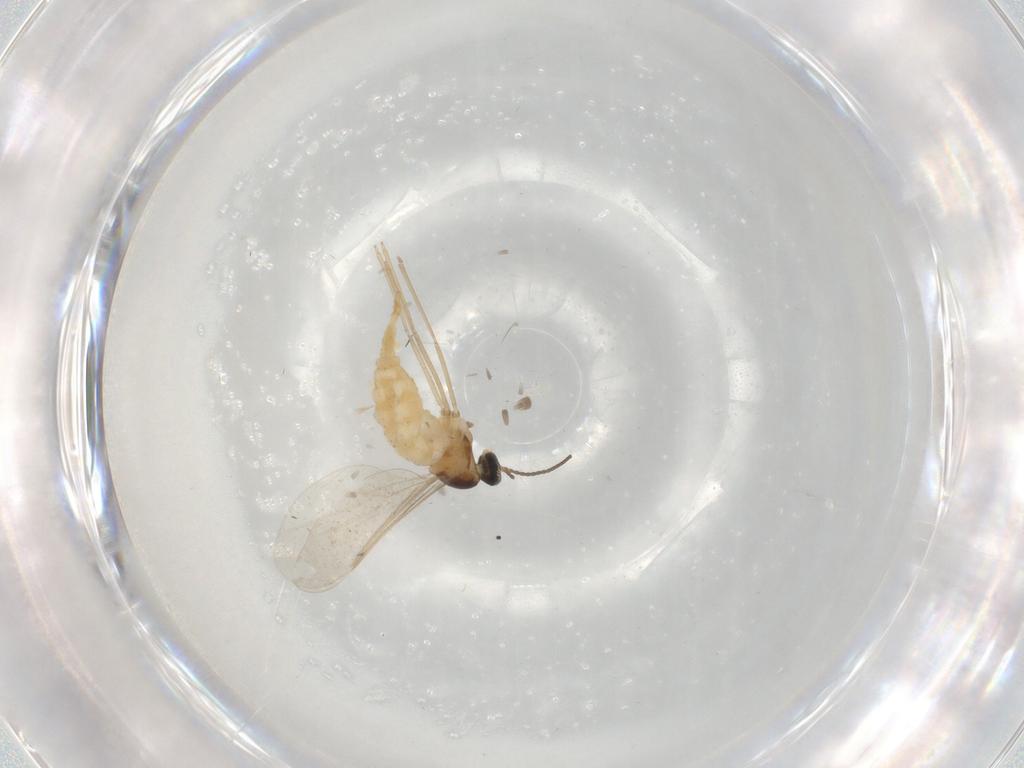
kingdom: Animalia
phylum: Arthropoda
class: Insecta
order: Diptera
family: Cecidomyiidae
